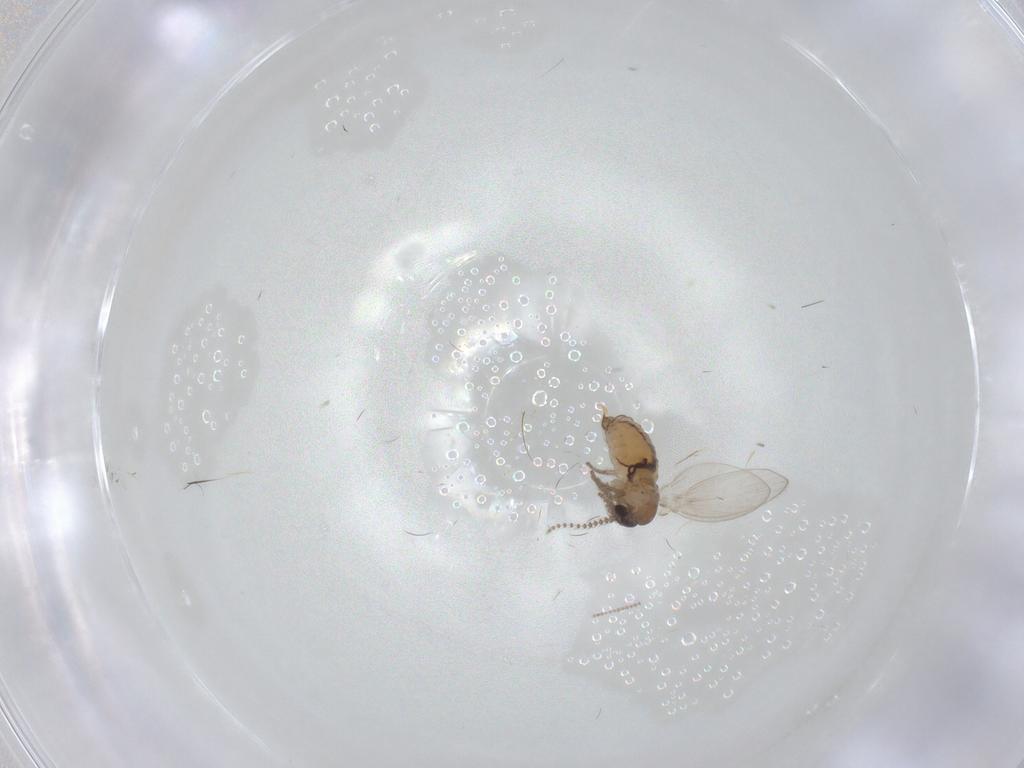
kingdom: Animalia
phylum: Arthropoda
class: Insecta
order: Diptera
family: Psychodidae
